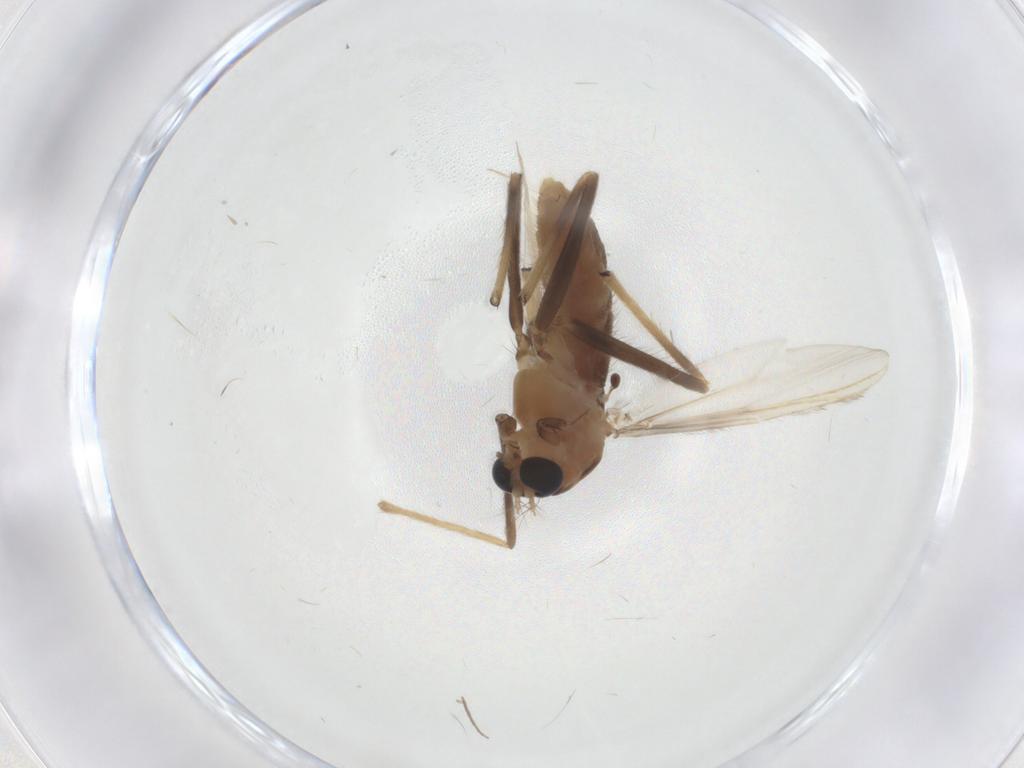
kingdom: Animalia
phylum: Arthropoda
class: Insecta
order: Diptera
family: Chironomidae
